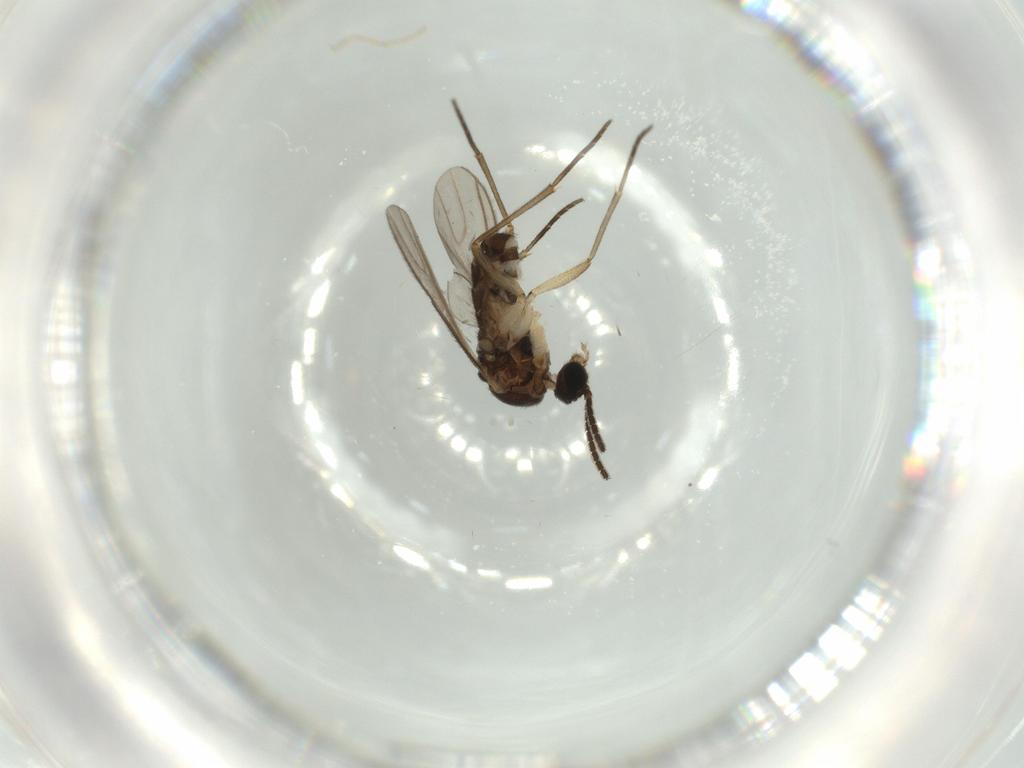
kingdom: Animalia
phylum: Arthropoda
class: Insecta
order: Diptera
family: Sciaridae
